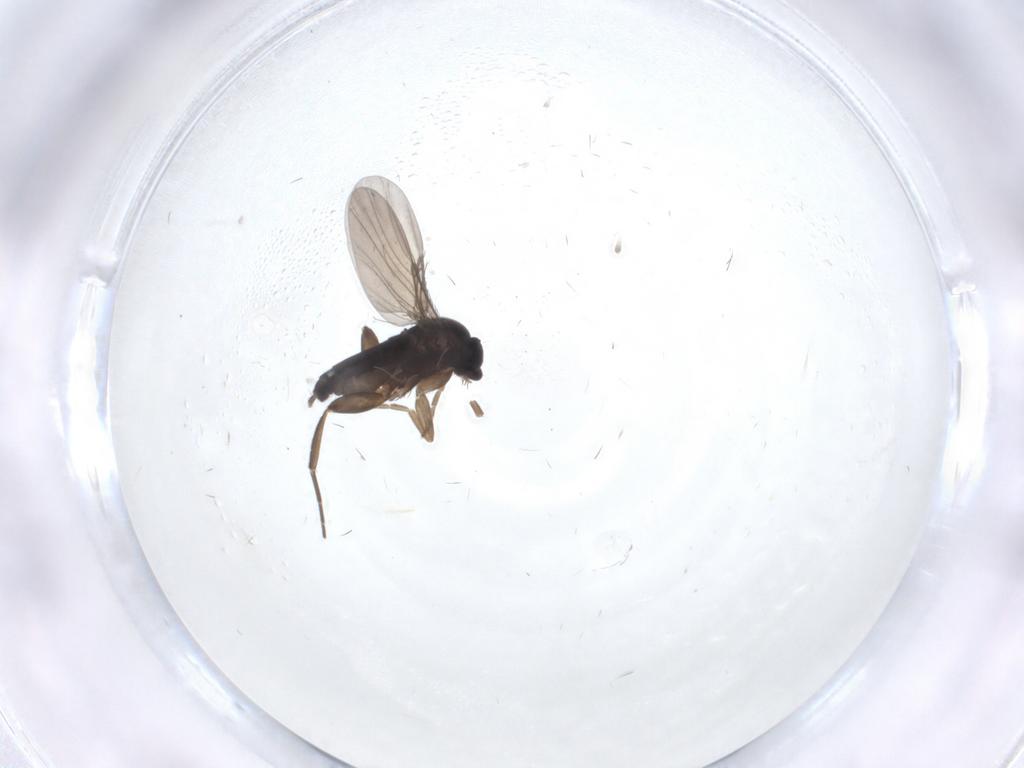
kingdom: Animalia
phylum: Arthropoda
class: Insecta
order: Diptera
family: Phoridae
